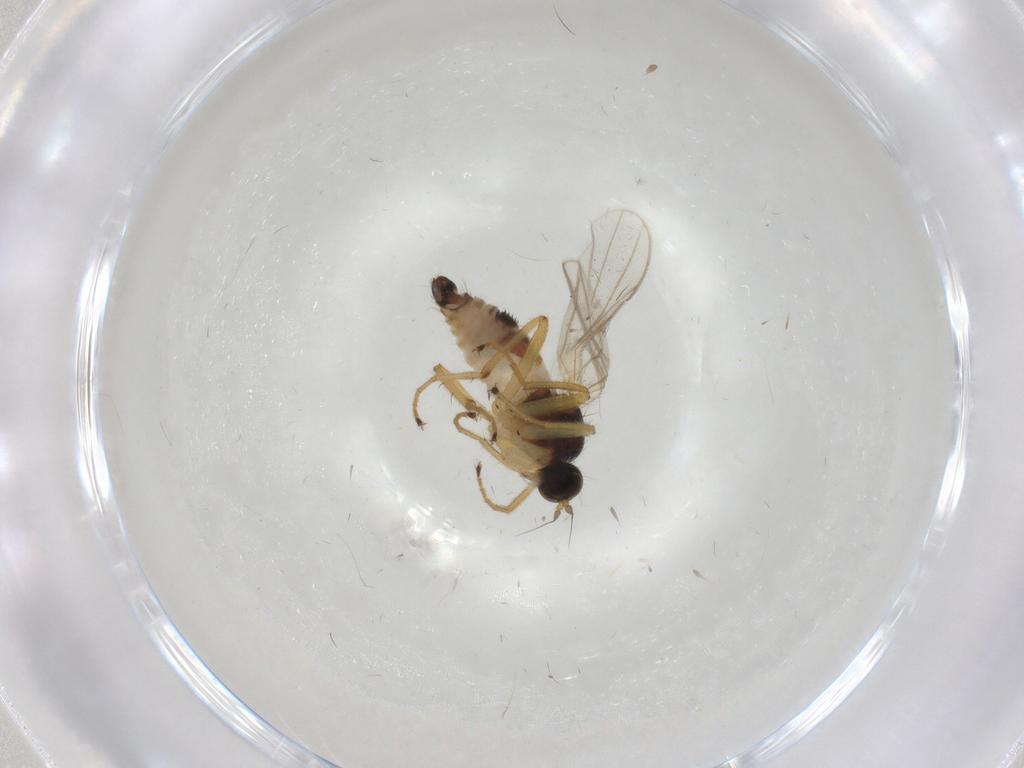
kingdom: Animalia
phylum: Arthropoda
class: Insecta
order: Diptera
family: Hybotidae
